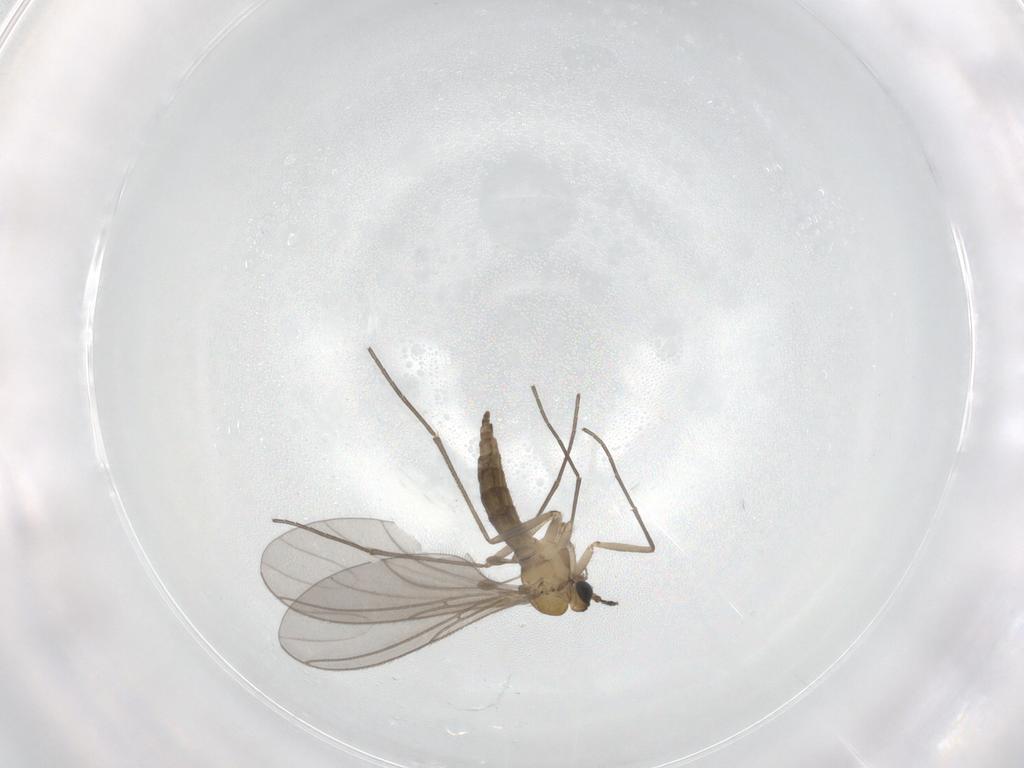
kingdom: Animalia
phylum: Arthropoda
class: Insecta
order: Diptera
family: Sciaridae
